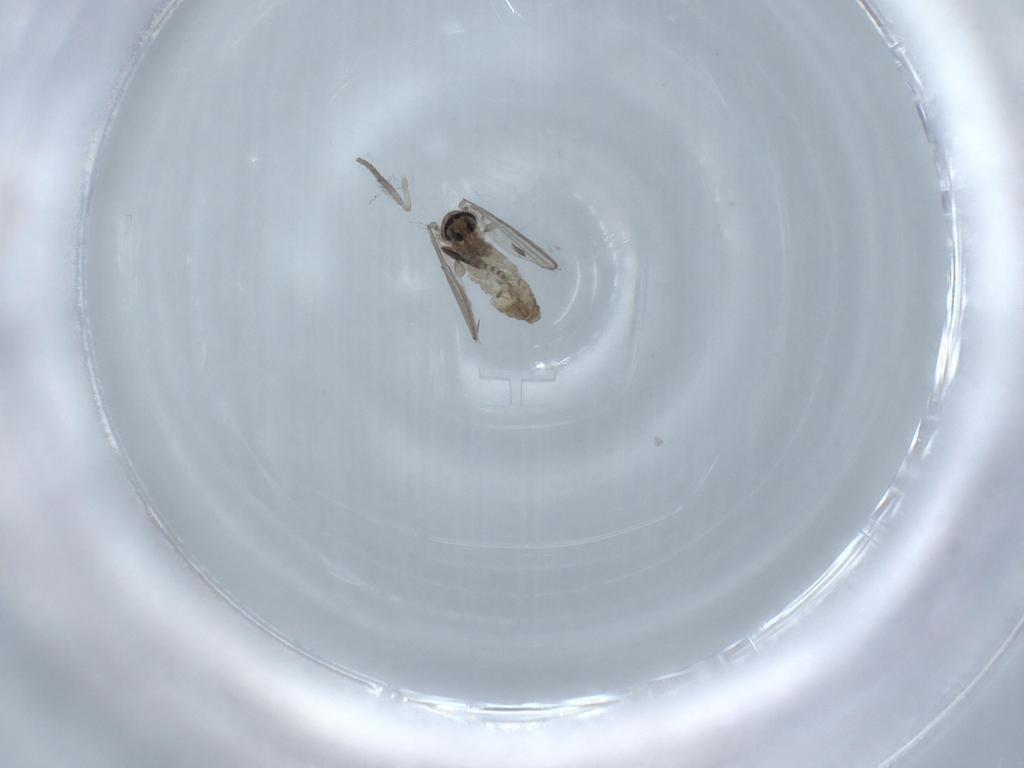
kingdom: Animalia
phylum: Arthropoda
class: Insecta
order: Diptera
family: Psychodidae
